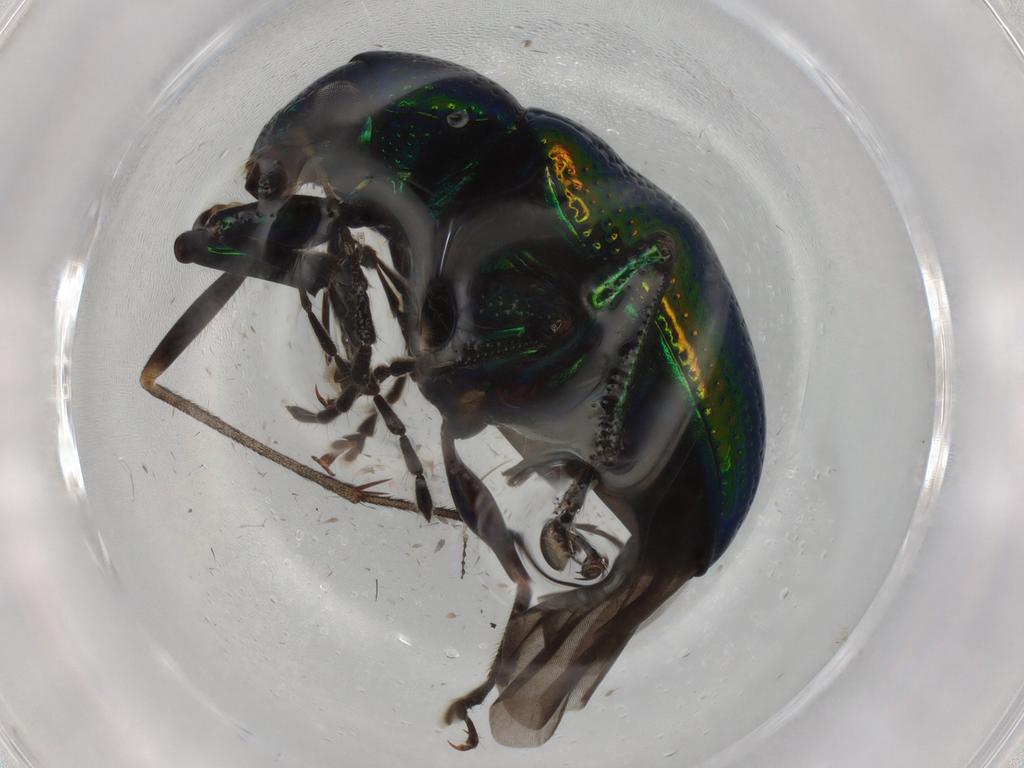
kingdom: Animalia
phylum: Arthropoda
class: Insecta
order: Coleoptera
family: Chrysomelidae
